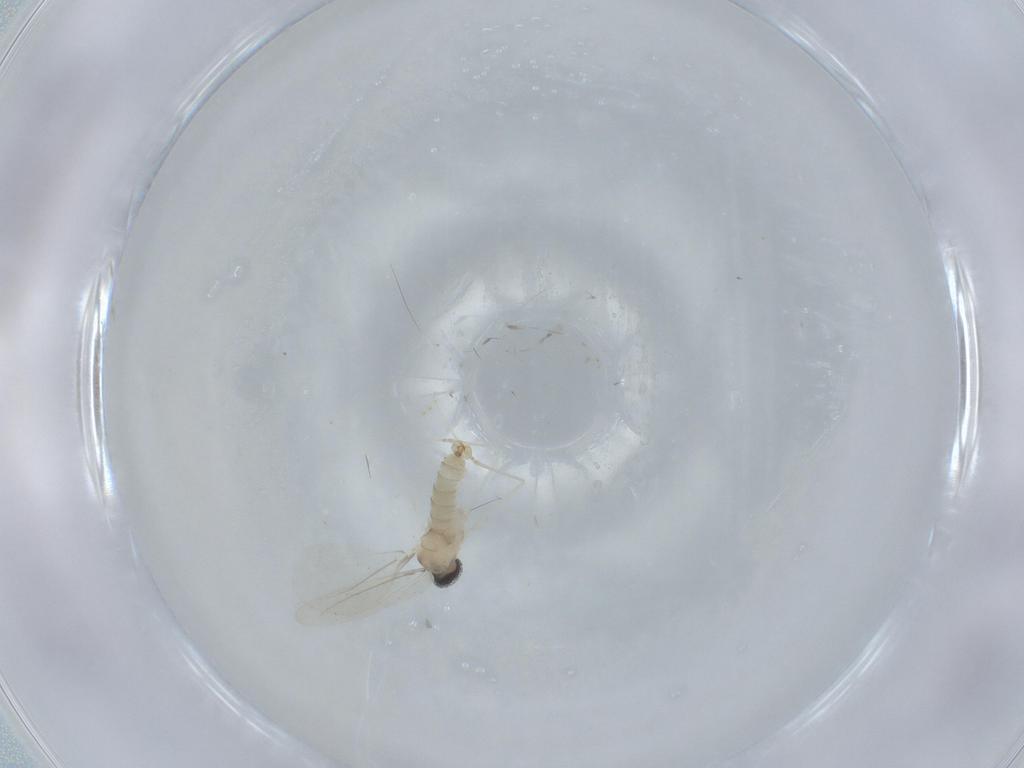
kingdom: Animalia
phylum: Arthropoda
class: Insecta
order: Diptera
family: Cecidomyiidae
